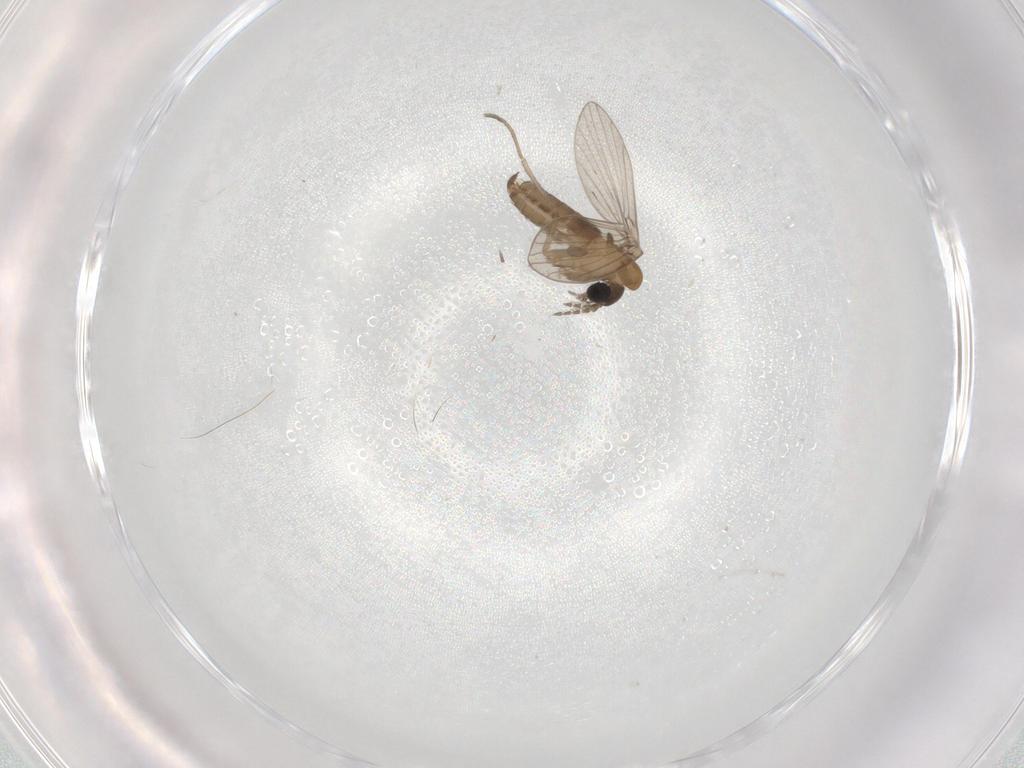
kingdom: Animalia
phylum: Arthropoda
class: Insecta
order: Diptera
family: Psychodidae
